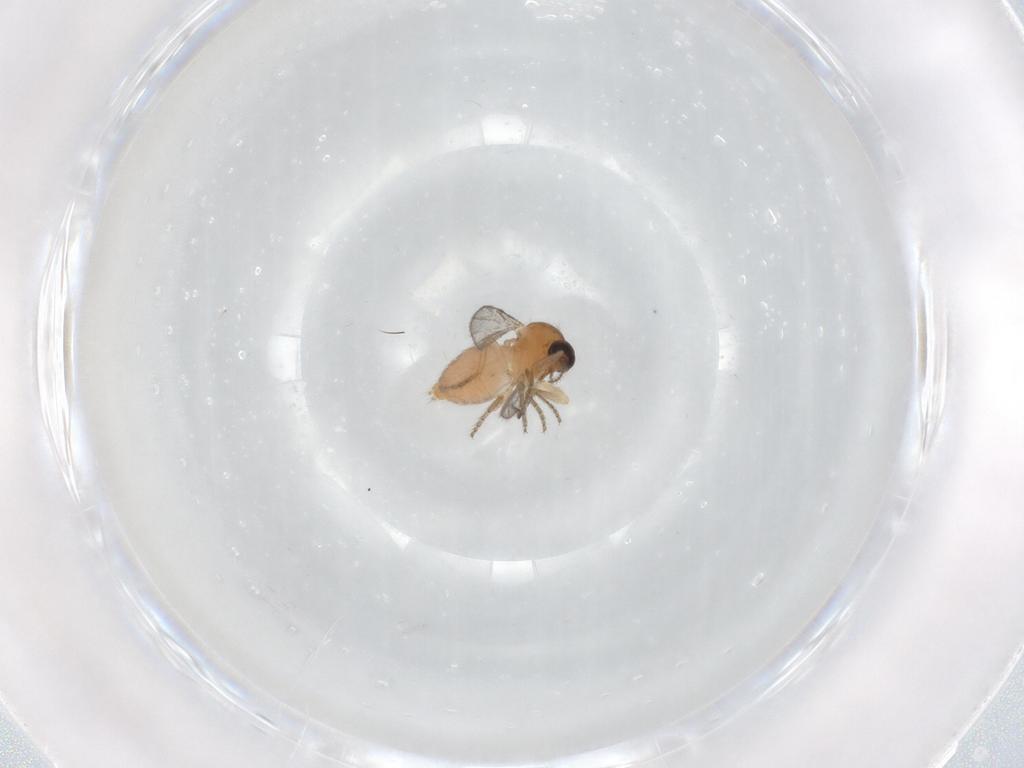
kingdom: Animalia
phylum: Arthropoda
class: Insecta
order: Diptera
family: Ceratopogonidae
